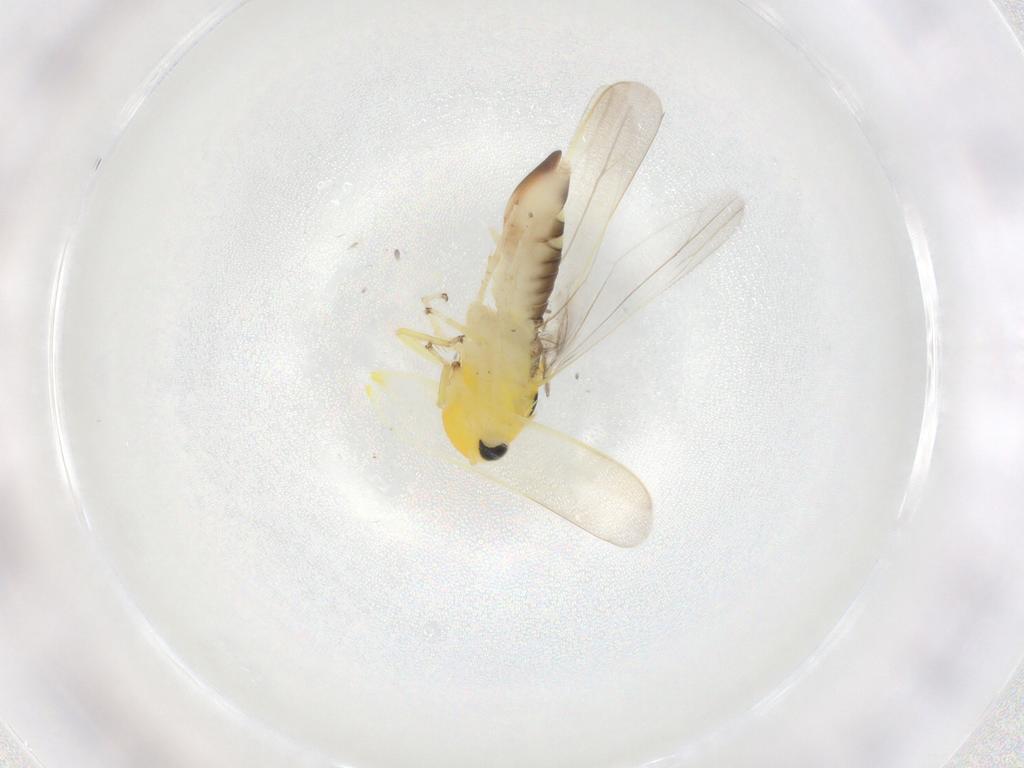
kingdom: Animalia
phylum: Arthropoda
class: Insecta
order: Hemiptera
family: Cicadellidae
